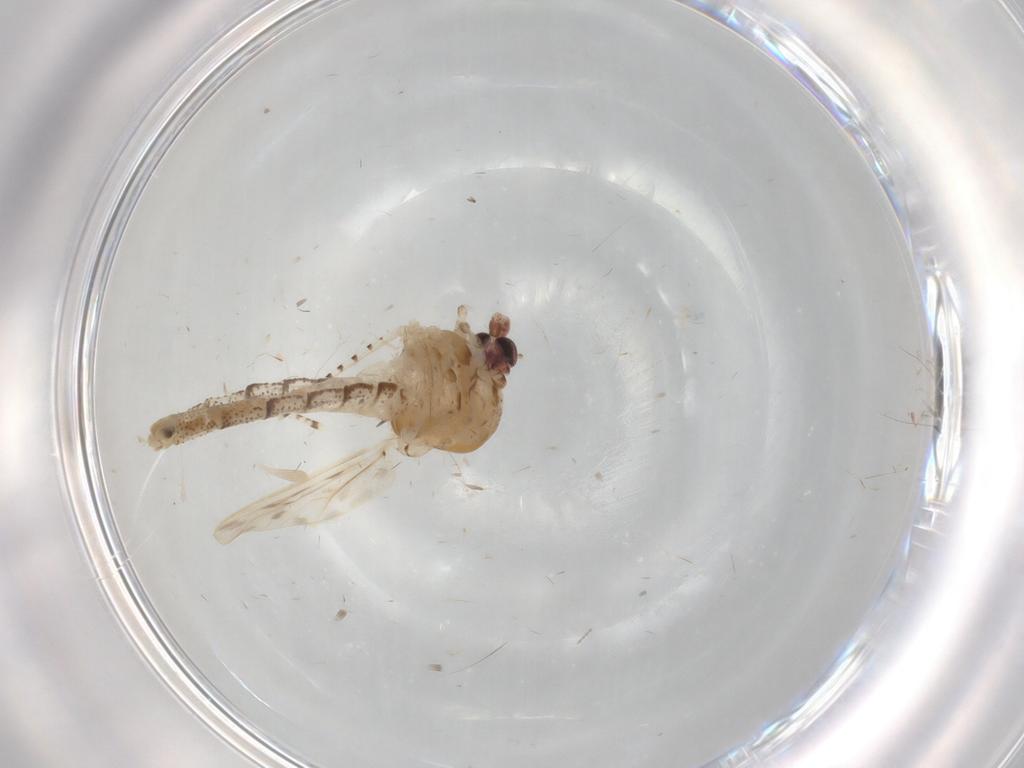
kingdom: Animalia
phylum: Arthropoda
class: Insecta
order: Diptera
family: Chaoboridae
